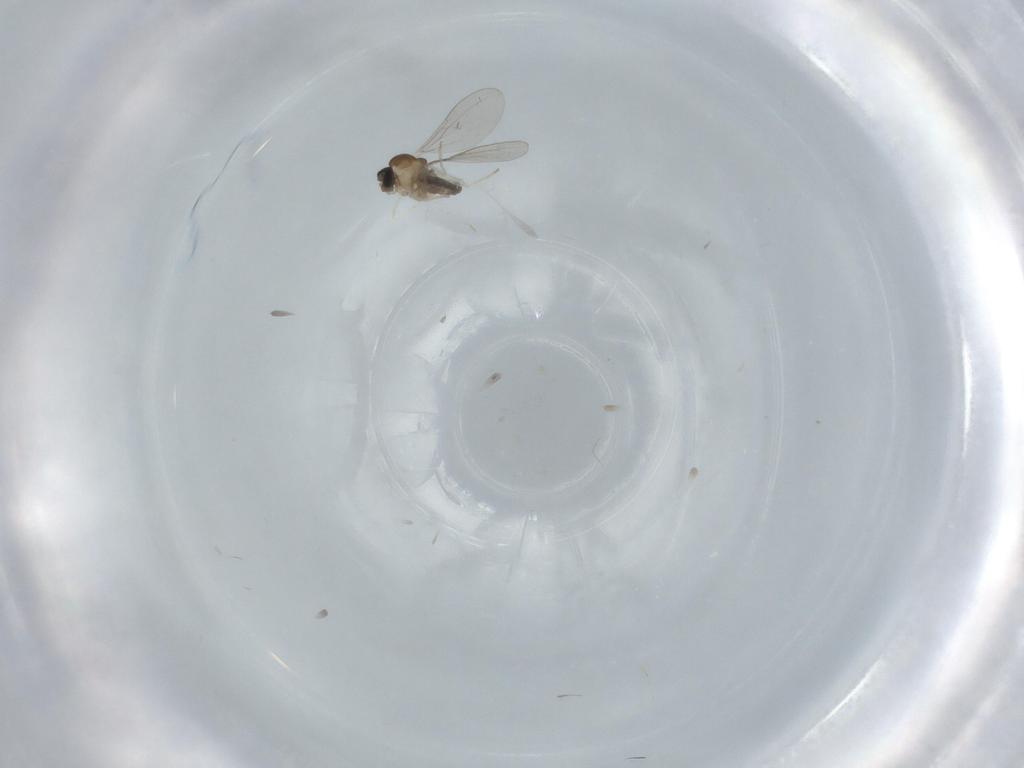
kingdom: Animalia
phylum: Arthropoda
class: Insecta
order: Diptera
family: Cecidomyiidae
